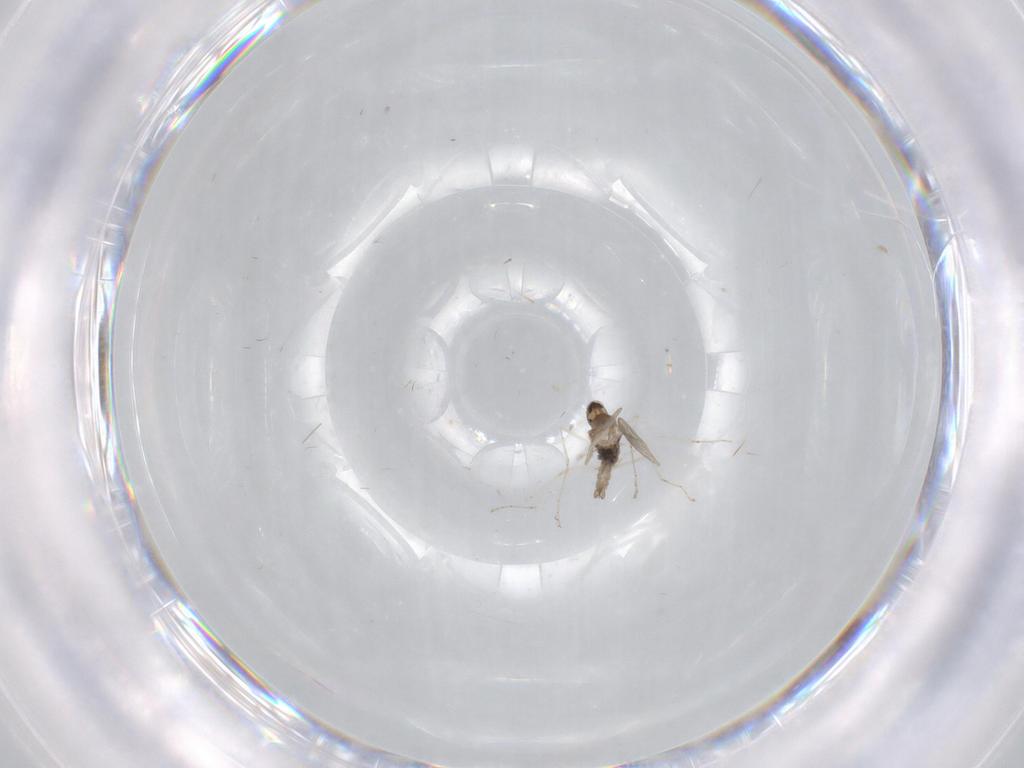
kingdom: Animalia
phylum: Arthropoda
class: Insecta
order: Diptera
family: Cecidomyiidae
